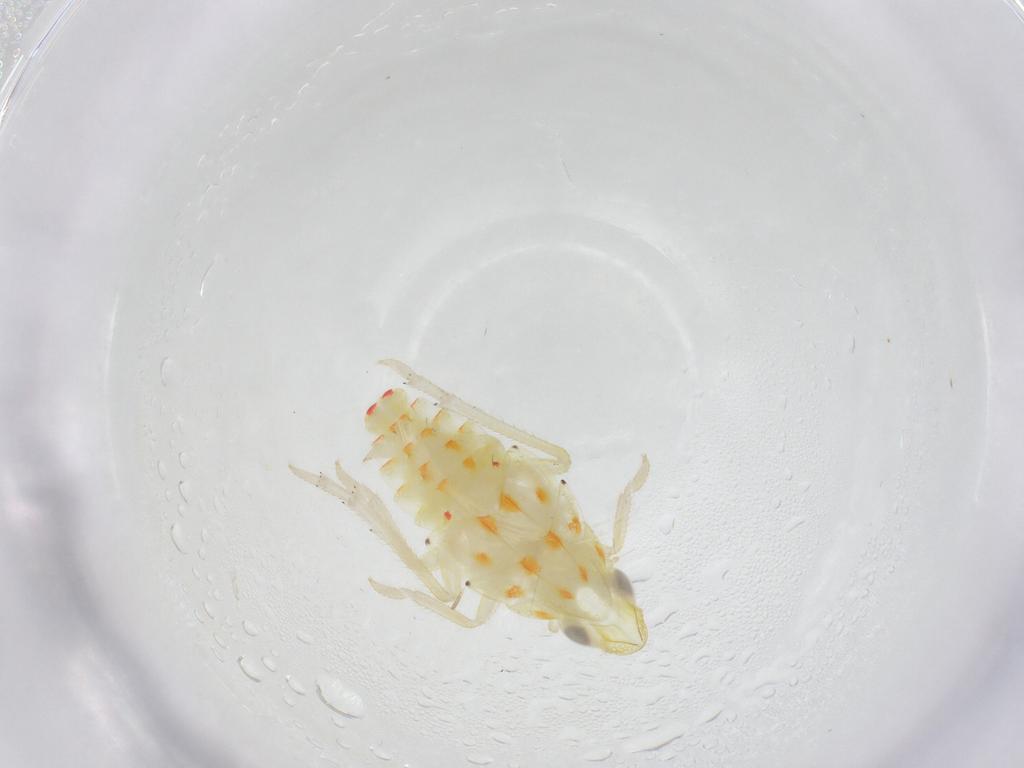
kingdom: Animalia
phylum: Arthropoda
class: Insecta
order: Hemiptera
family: Tropiduchidae
